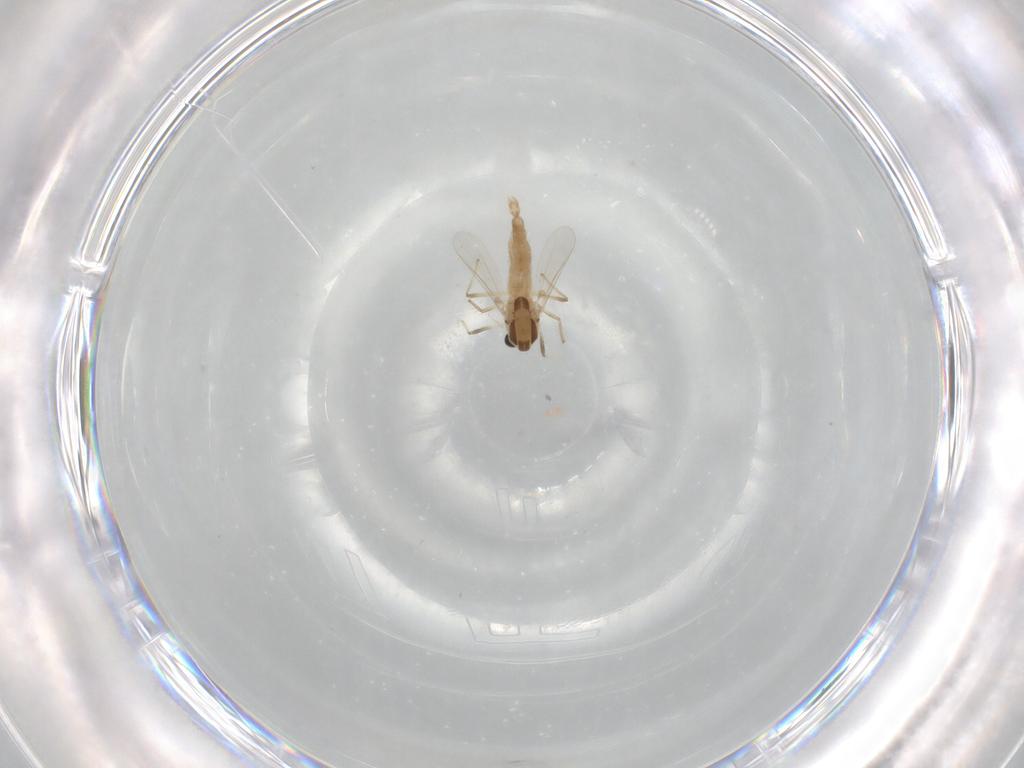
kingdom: Animalia
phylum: Arthropoda
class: Insecta
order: Diptera
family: Chironomidae
